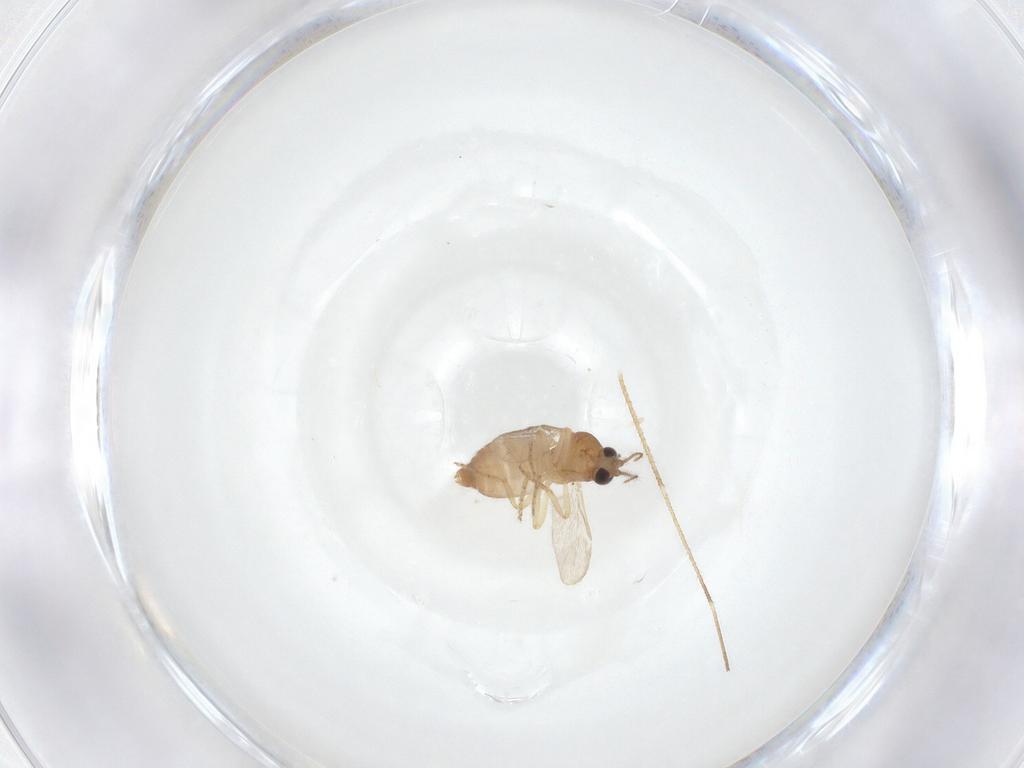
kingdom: Animalia
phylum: Arthropoda
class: Insecta
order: Diptera
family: Ceratopogonidae
